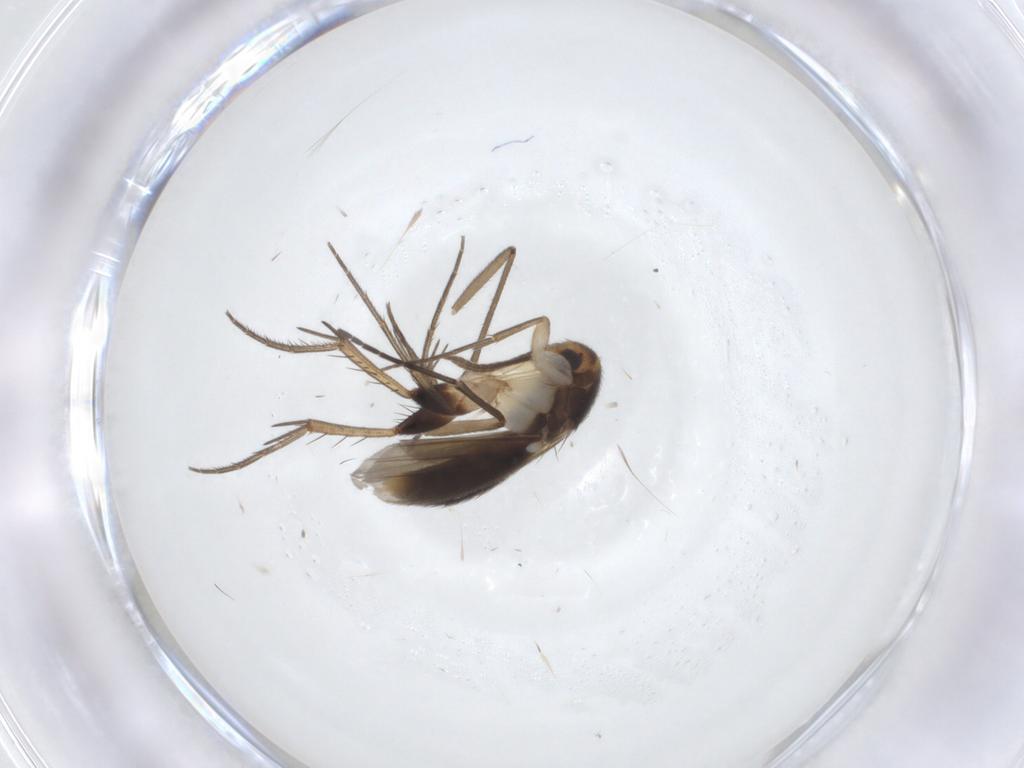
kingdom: Animalia
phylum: Arthropoda
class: Insecta
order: Diptera
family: Mycetophilidae
